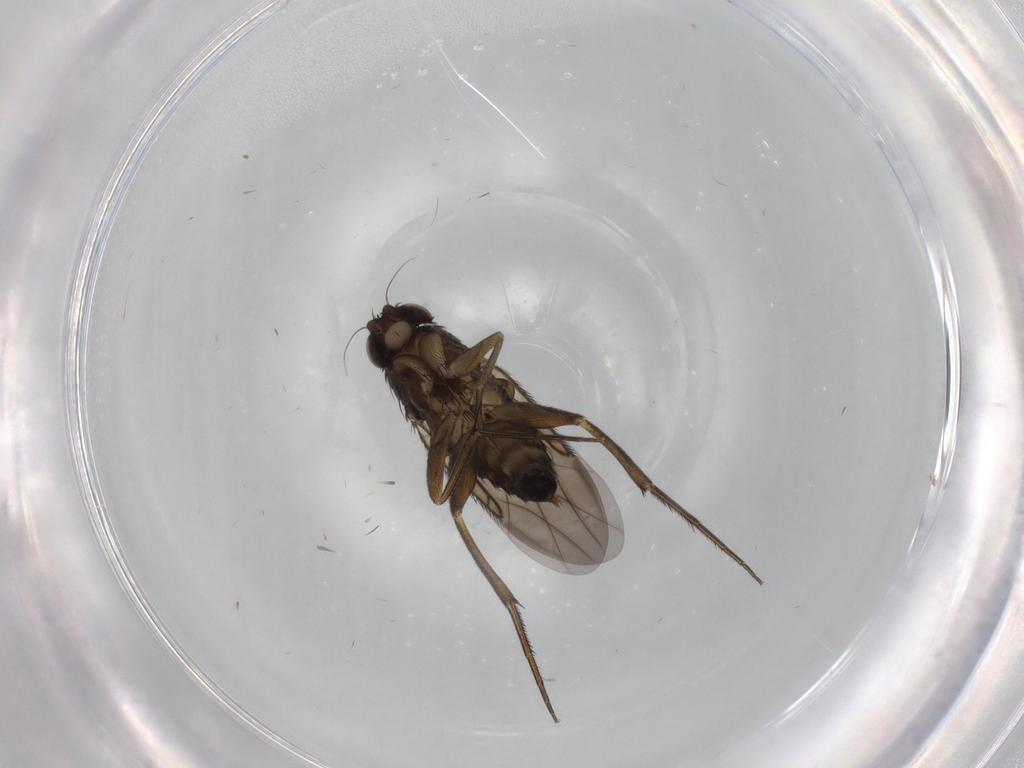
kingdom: Animalia
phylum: Arthropoda
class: Insecta
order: Diptera
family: Phoridae
